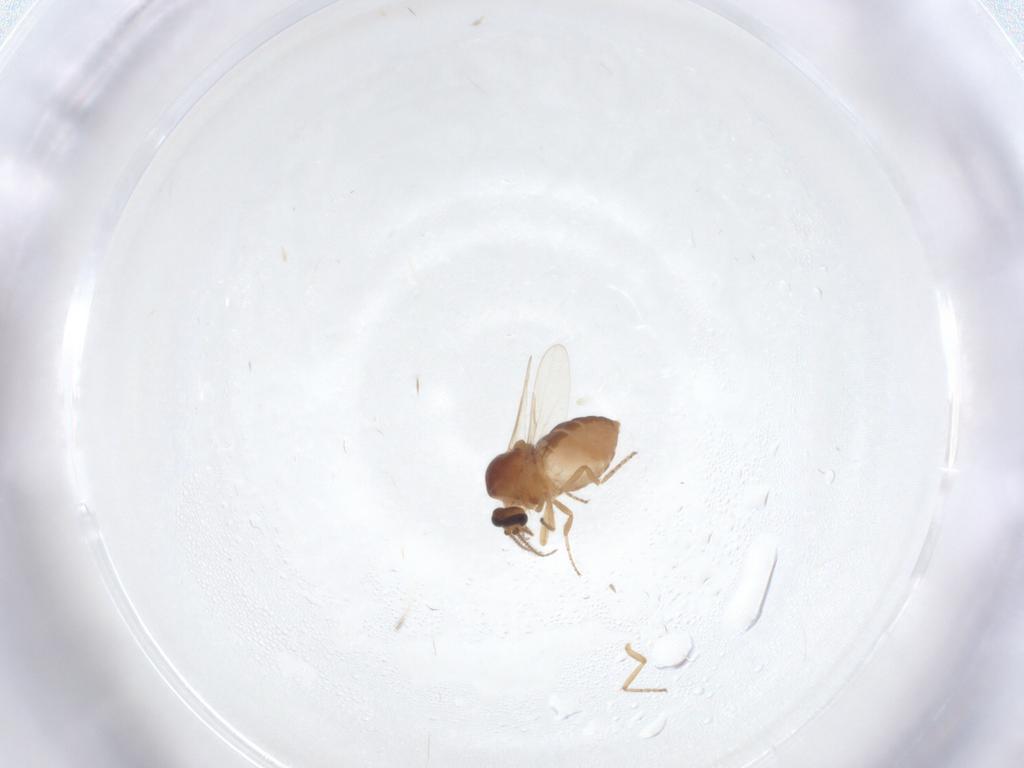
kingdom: Animalia
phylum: Arthropoda
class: Insecta
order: Diptera
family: Ceratopogonidae
